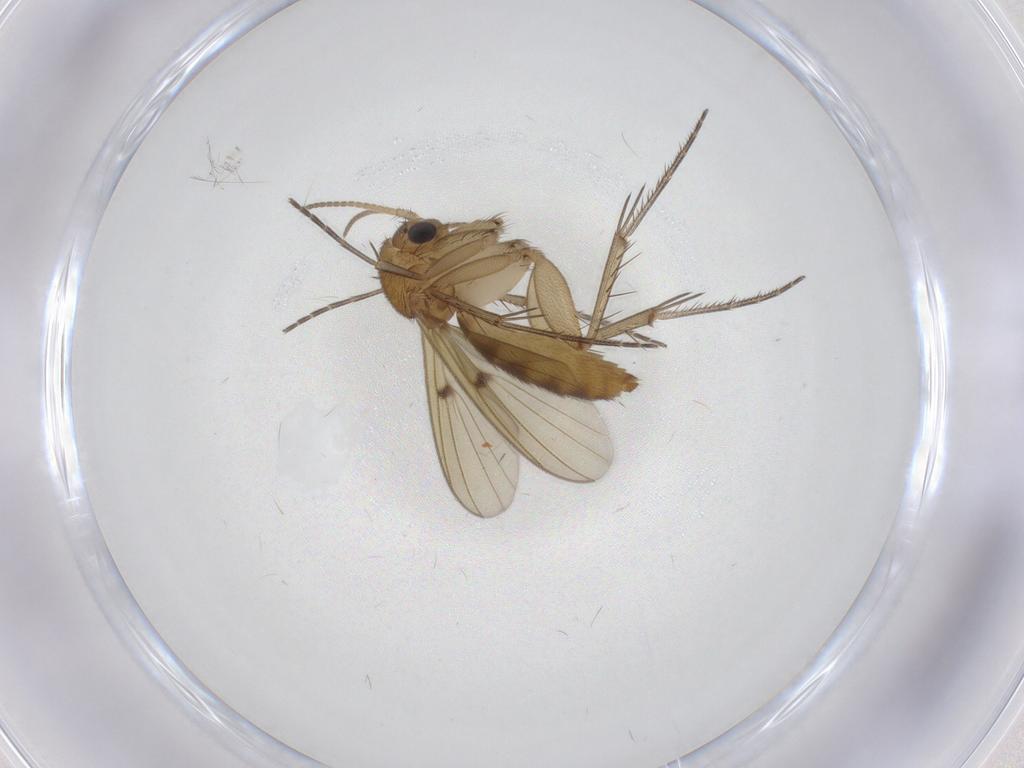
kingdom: Animalia
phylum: Arthropoda
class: Insecta
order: Diptera
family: Mycetophilidae
